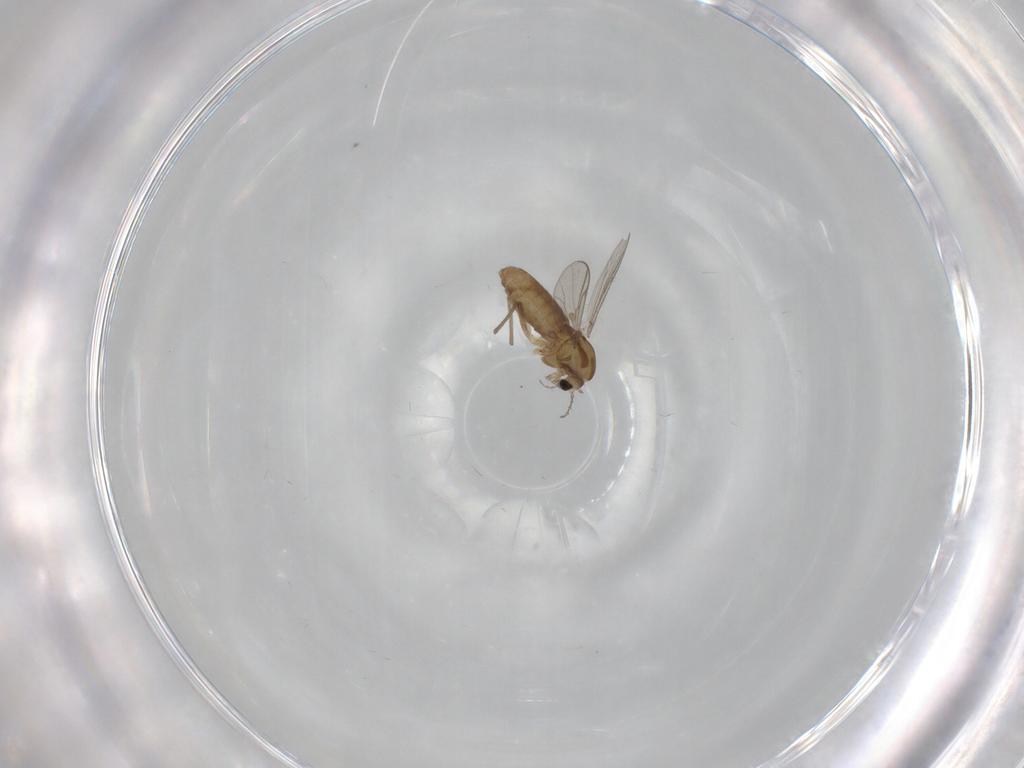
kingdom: Animalia
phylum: Arthropoda
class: Insecta
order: Diptera
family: Chironomidae
